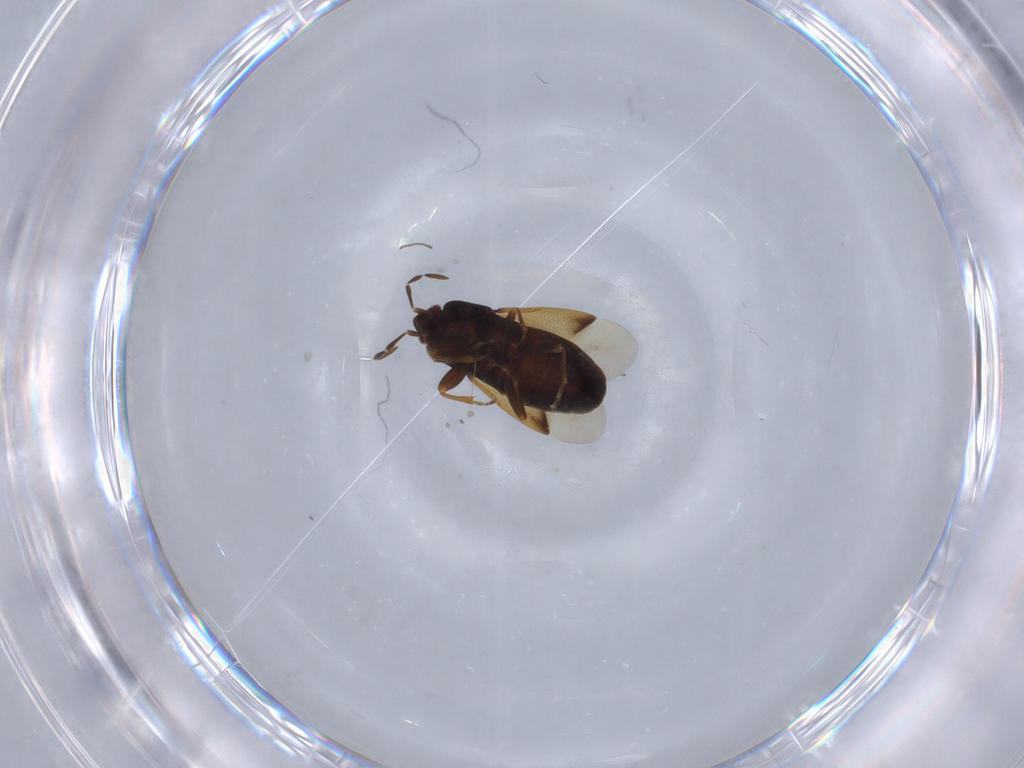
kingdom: Animalia
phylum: Arthropoda
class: Insecta
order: Hemiptera
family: Rhyparochromidae
